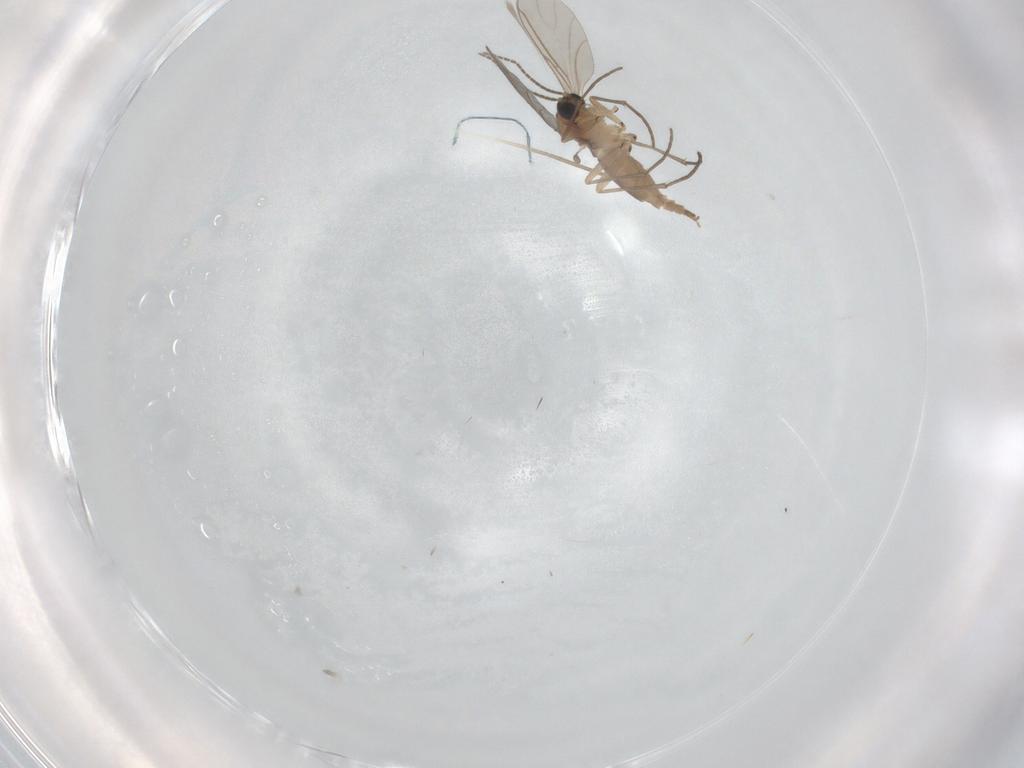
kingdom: Animalia
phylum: Arthropoda
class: Insecta
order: Diptera
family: Sciaridae
